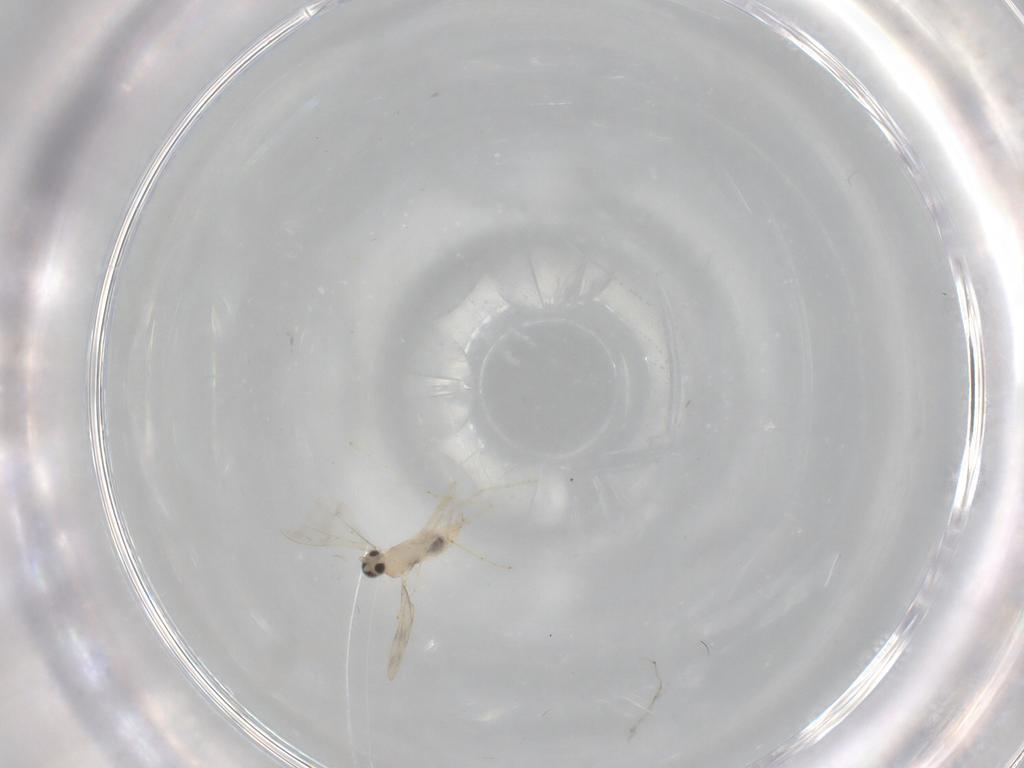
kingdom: Animalia
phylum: Arthropoda
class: Insecta
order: Diptera
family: Cecidomyiidae
